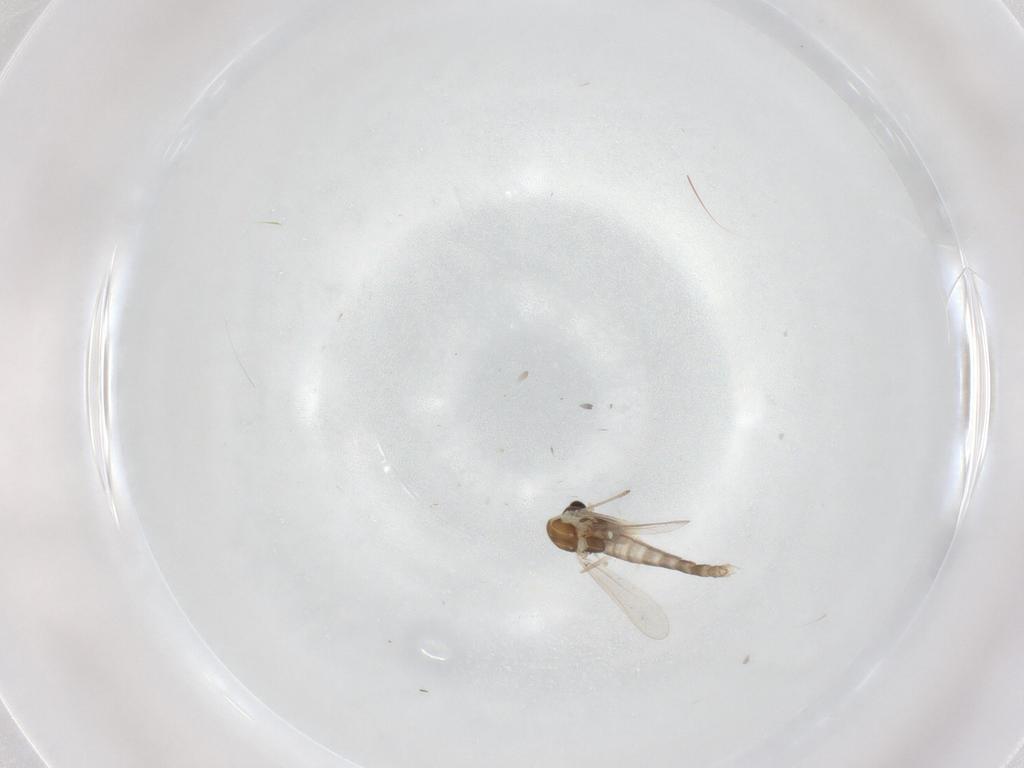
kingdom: Animalia
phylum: Arthropoda
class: Insecta
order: Diptera
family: Chironomidae
